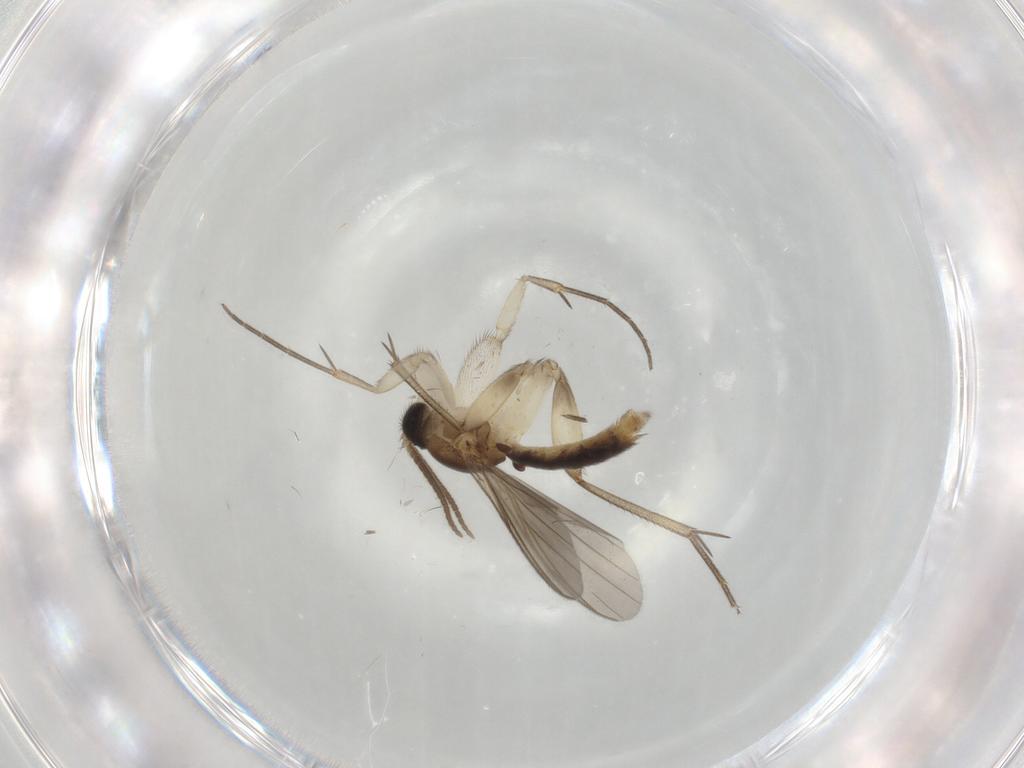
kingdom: Animalia
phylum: Arthropoda
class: Insecta
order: Diptera
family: Mycetophilidae
